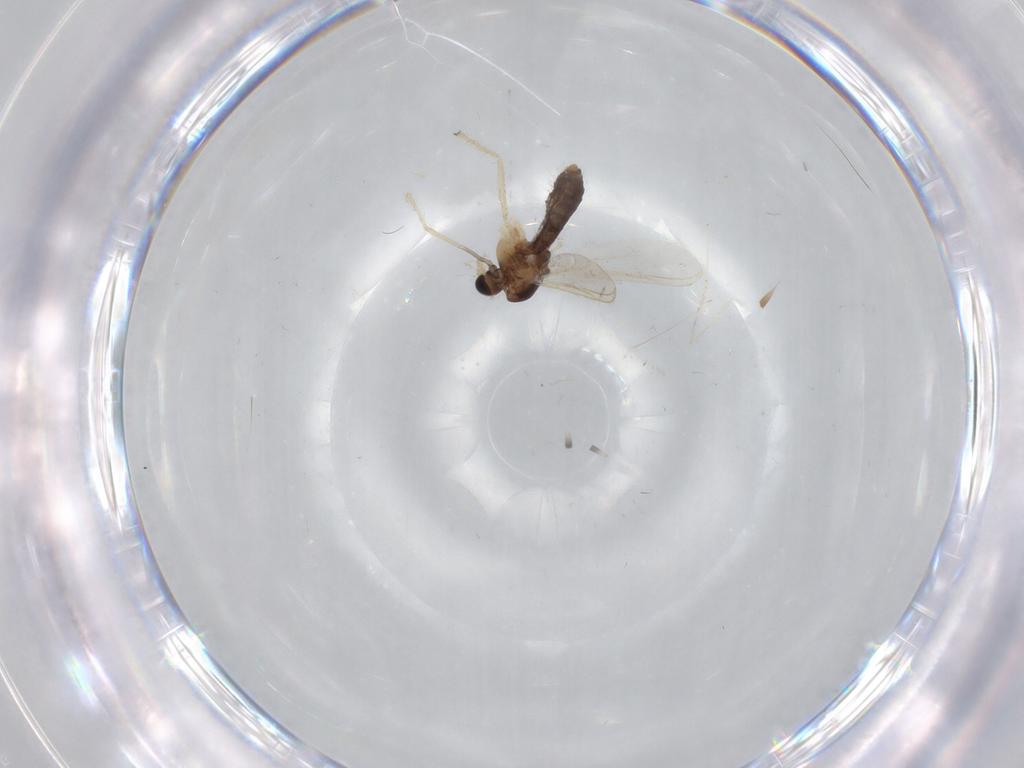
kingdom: Animalia
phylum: Arthropoda
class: Insecta
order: Diptera
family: Chironomidae
